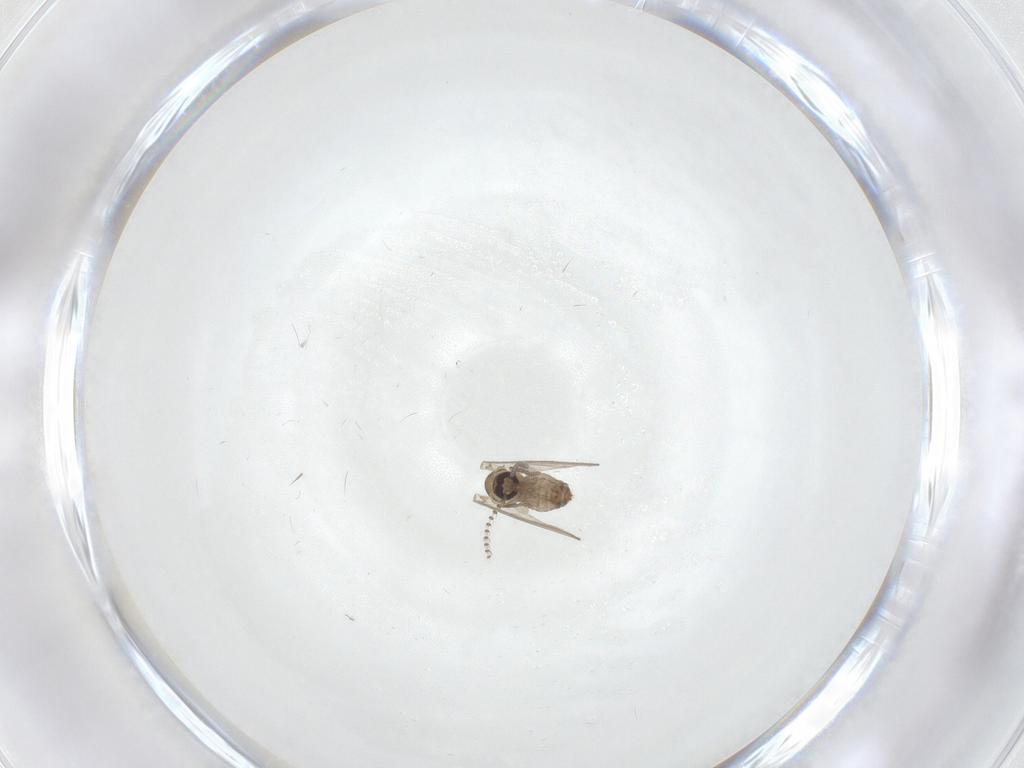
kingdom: Animalia
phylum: Arthropoda
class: Insecta
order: Diptera
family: Psychodidae
